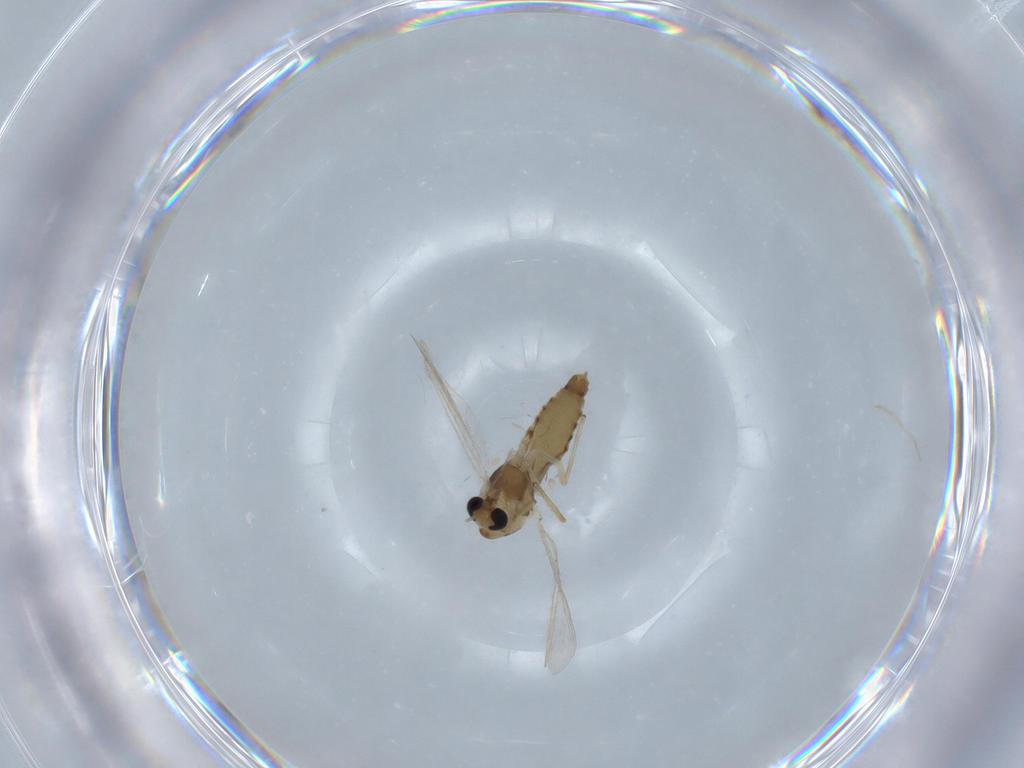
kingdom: Animalia
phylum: Arthropoda
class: Insecta
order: Diptera
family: Chironomidae
